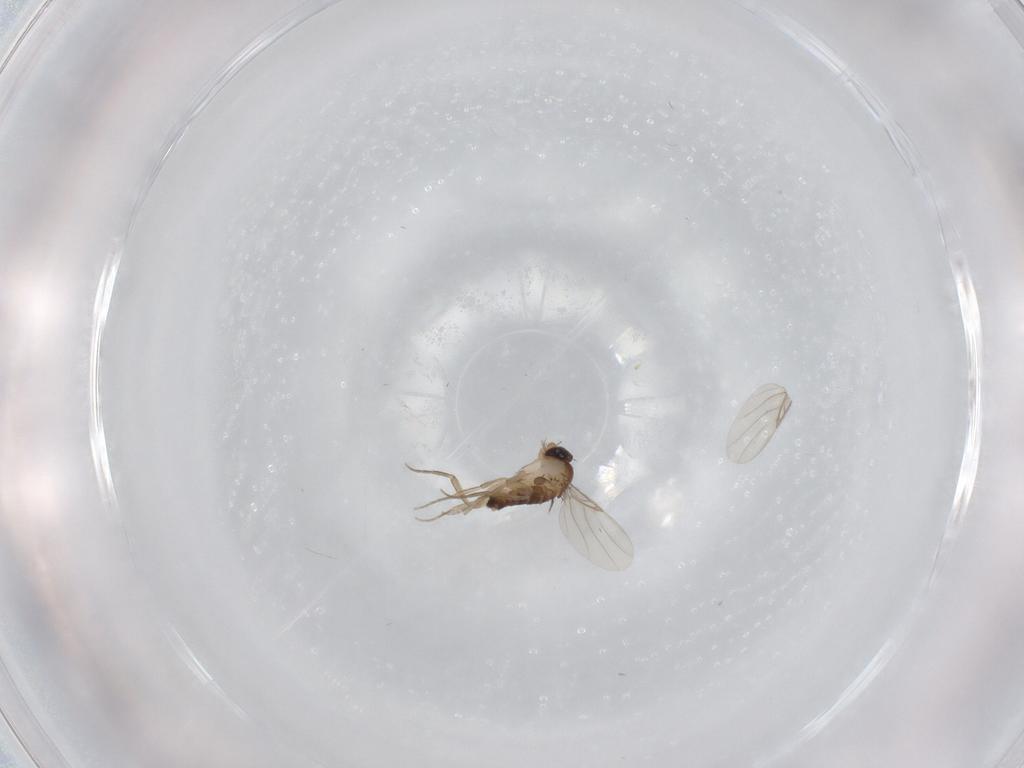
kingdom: Animalia
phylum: Arthropoda
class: Insecta
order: Diptera
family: Phoridae
